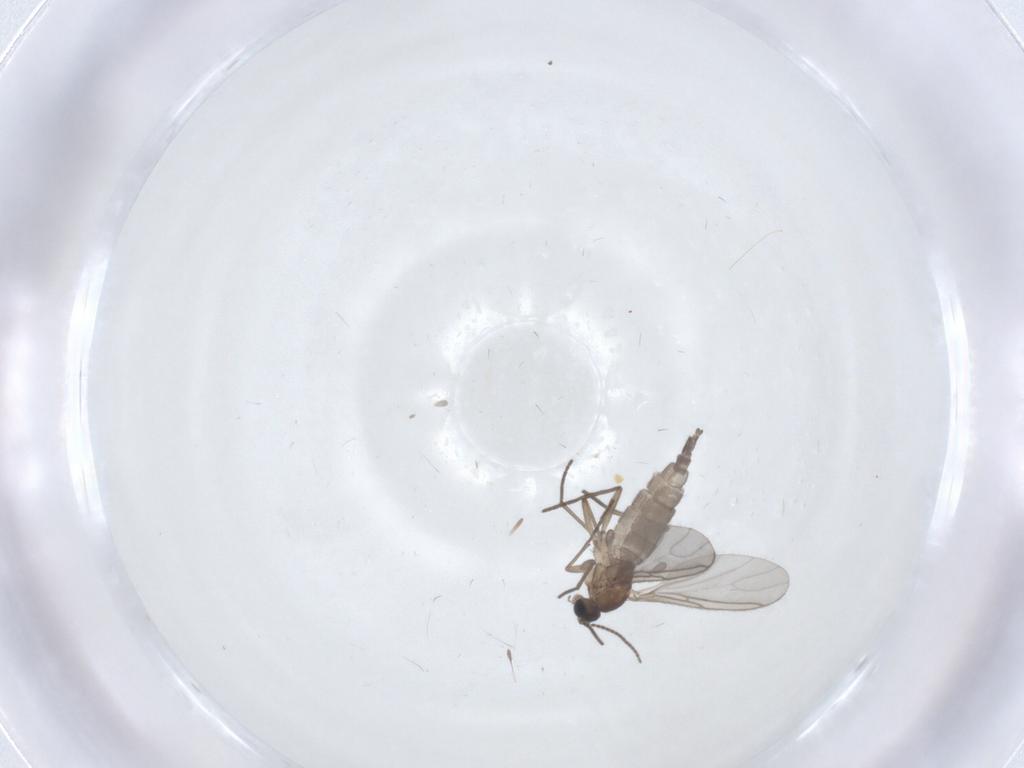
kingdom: Animalia
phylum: Arthropoda
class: Insecta
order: Diptera
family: Sciaridae
